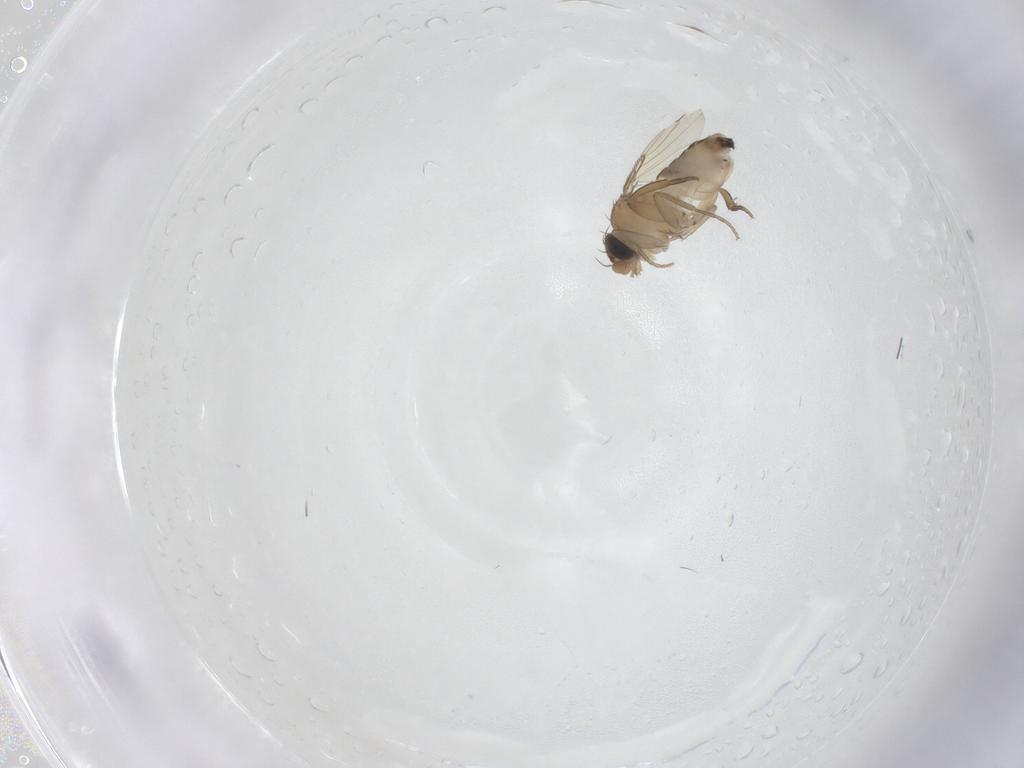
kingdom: Animalia
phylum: Arthropoda
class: Insecta
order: Diptera
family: Phoridae
